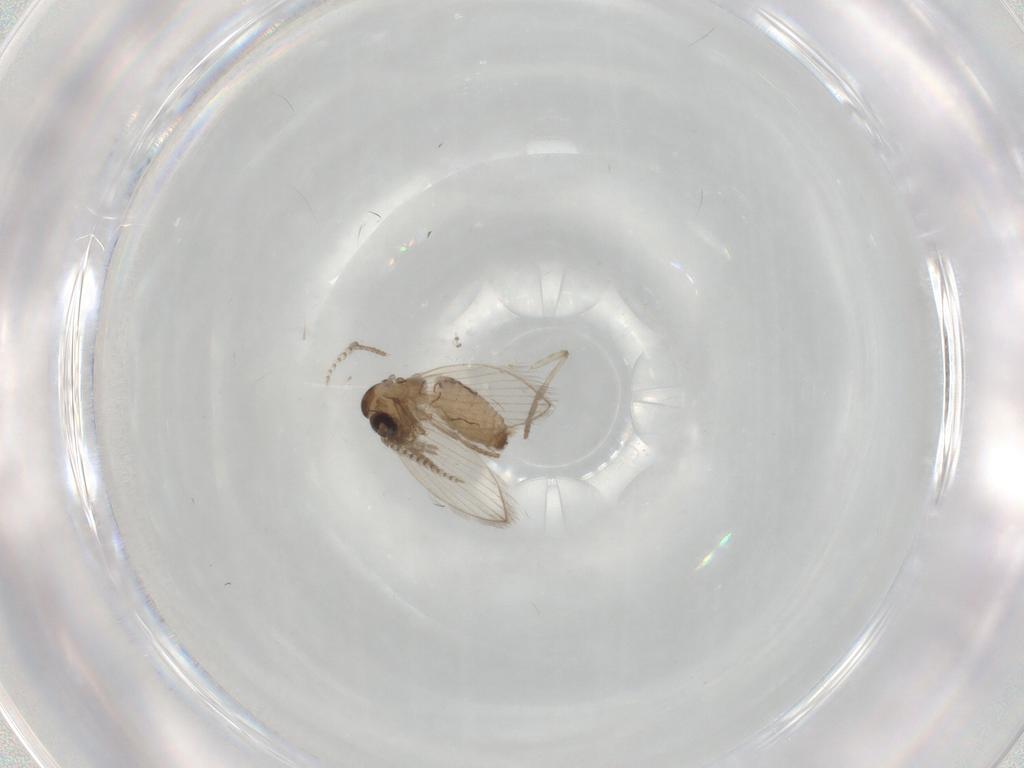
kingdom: Animalia
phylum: Arthropoda
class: Insecta
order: Diptera
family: Psychodidae
